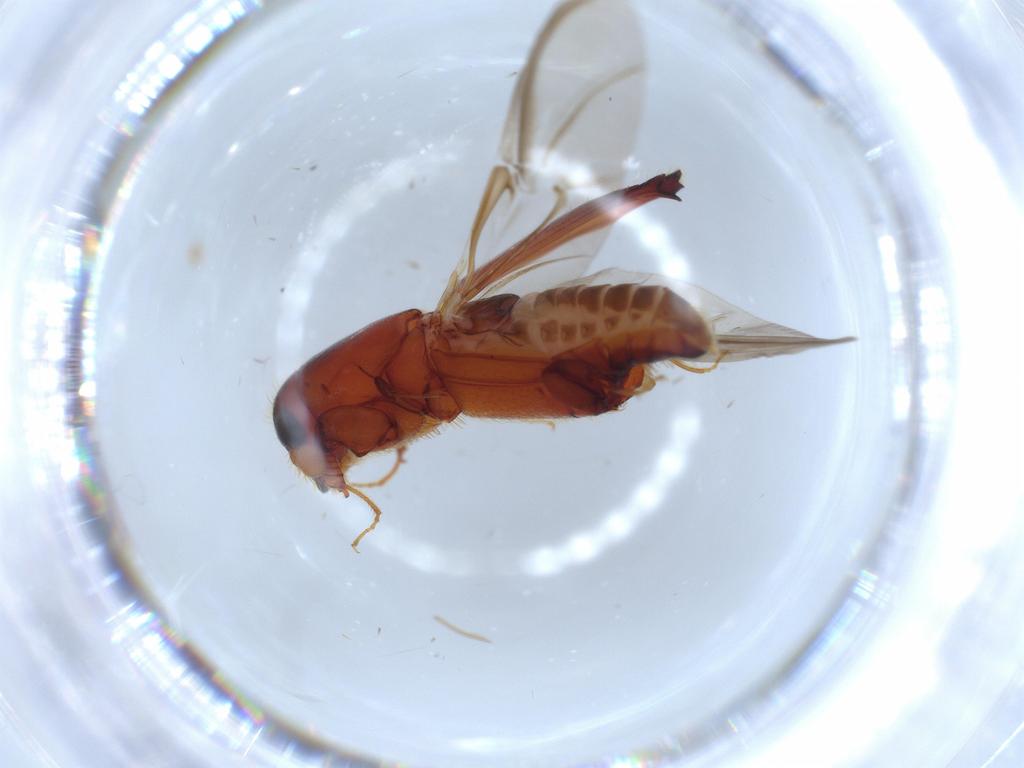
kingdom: Animalia
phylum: Arthropoda
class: Insecta
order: Coleoptera
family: Curculionidae
